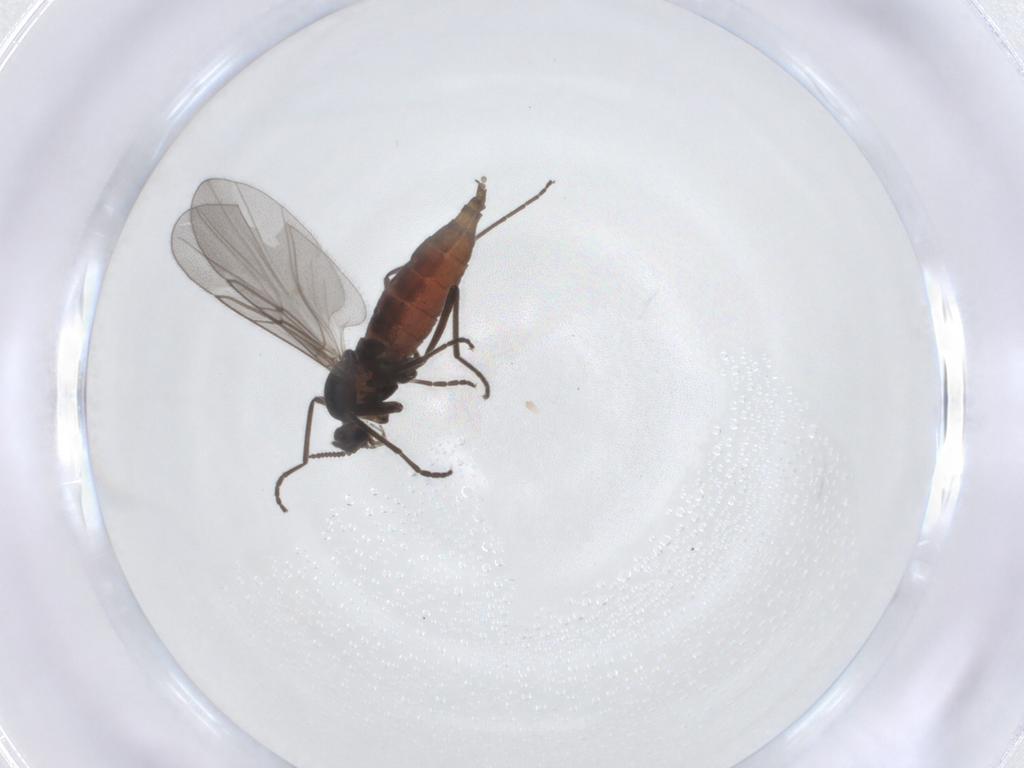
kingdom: Animalia
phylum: Arthropoda
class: Insecta
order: Diptera
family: Cecidomyiidae
